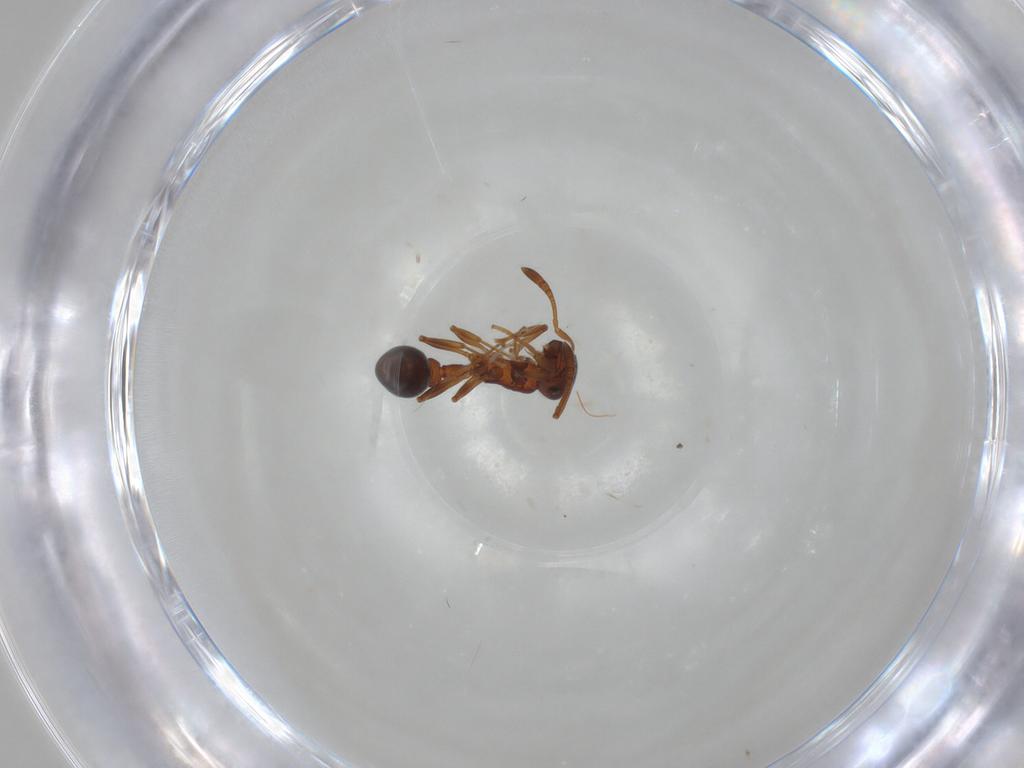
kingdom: Animalia
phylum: Arthropoda
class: Insecta
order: Hymenoptera
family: Formicidae
